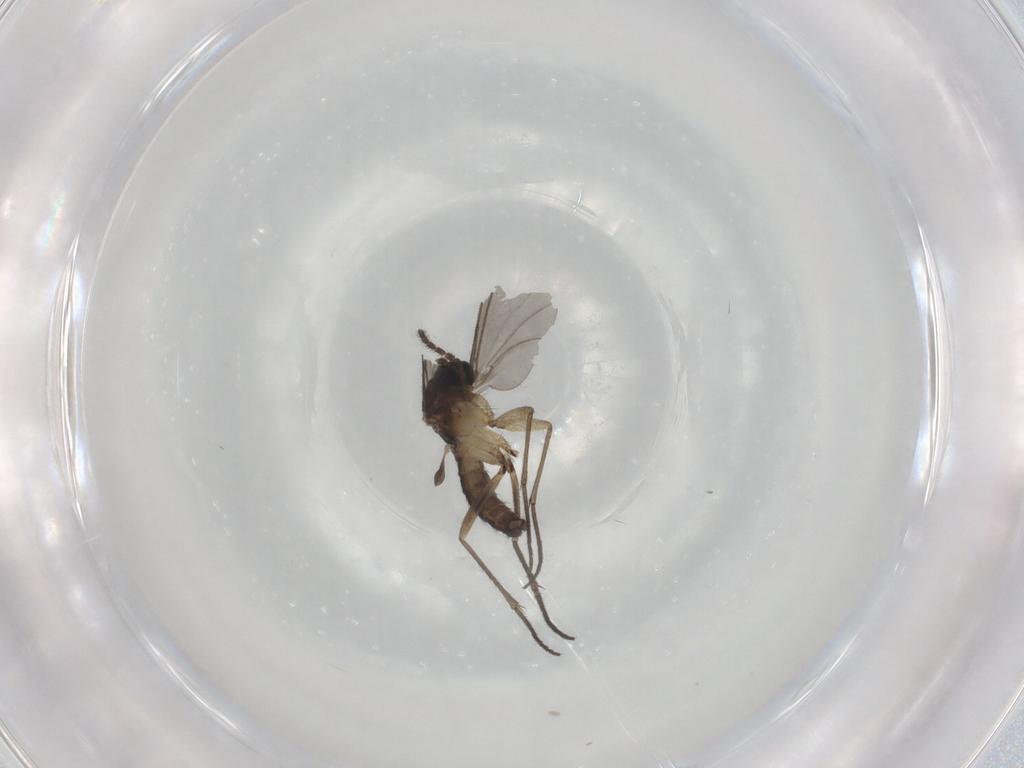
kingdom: Animalia
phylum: Arthropoda
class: Insecta
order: Diptera
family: Sciaridae
